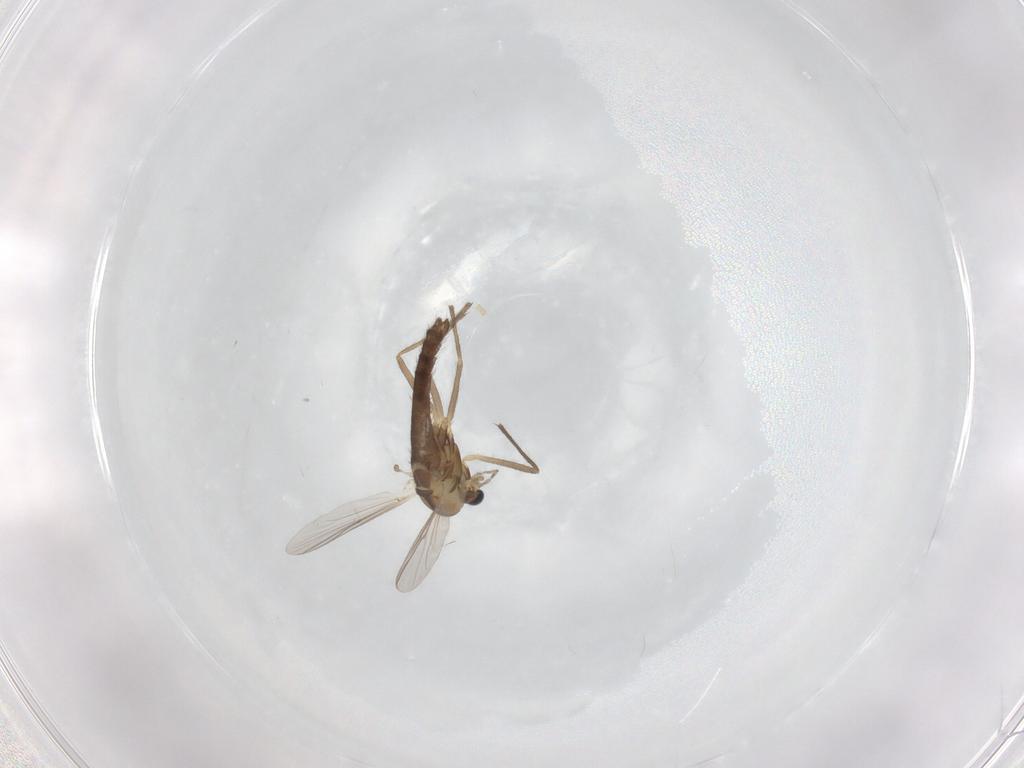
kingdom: Animalia
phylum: Arthropoda
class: Insecta
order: Diptera
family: Chironomidae
